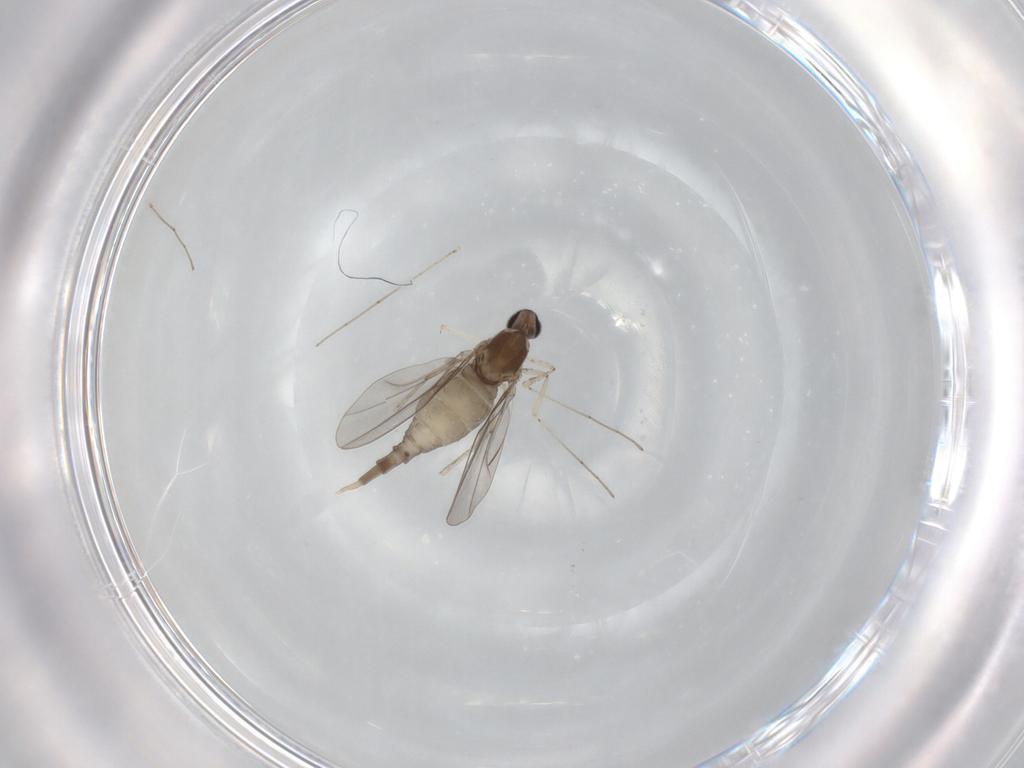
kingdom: Animalia
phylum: Arthropoda
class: Insecta
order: Diptera
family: Cecidomyiidae
